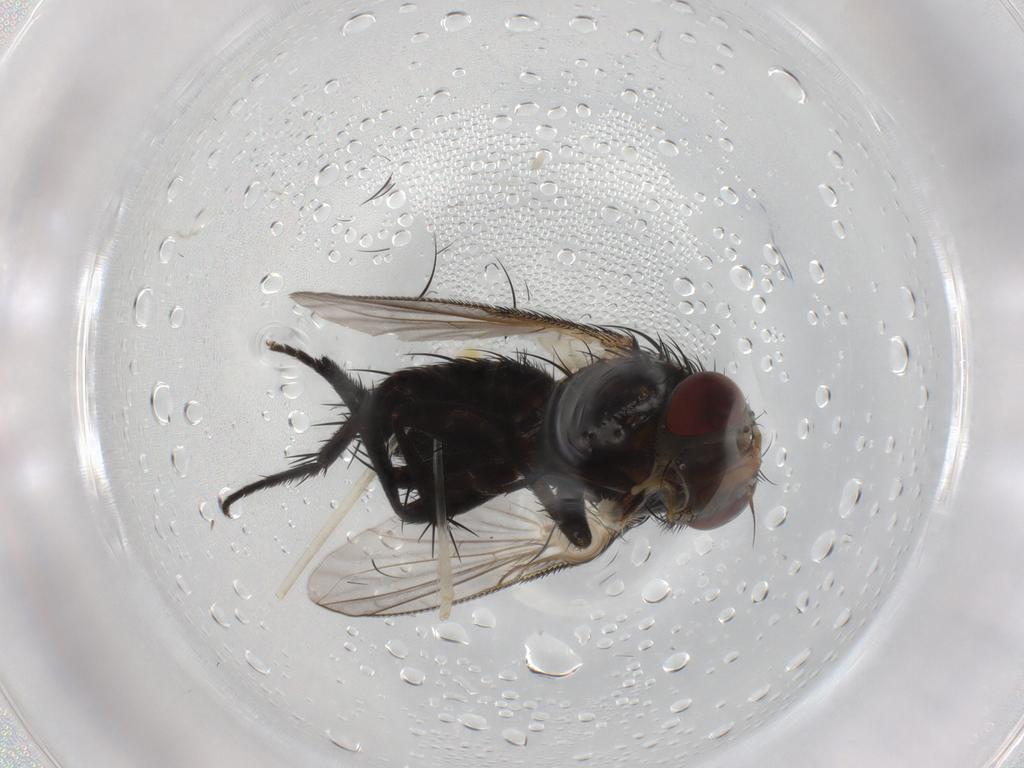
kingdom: Animalia
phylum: Arthropoda
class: Insecta
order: Diptera
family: Tachinidae
